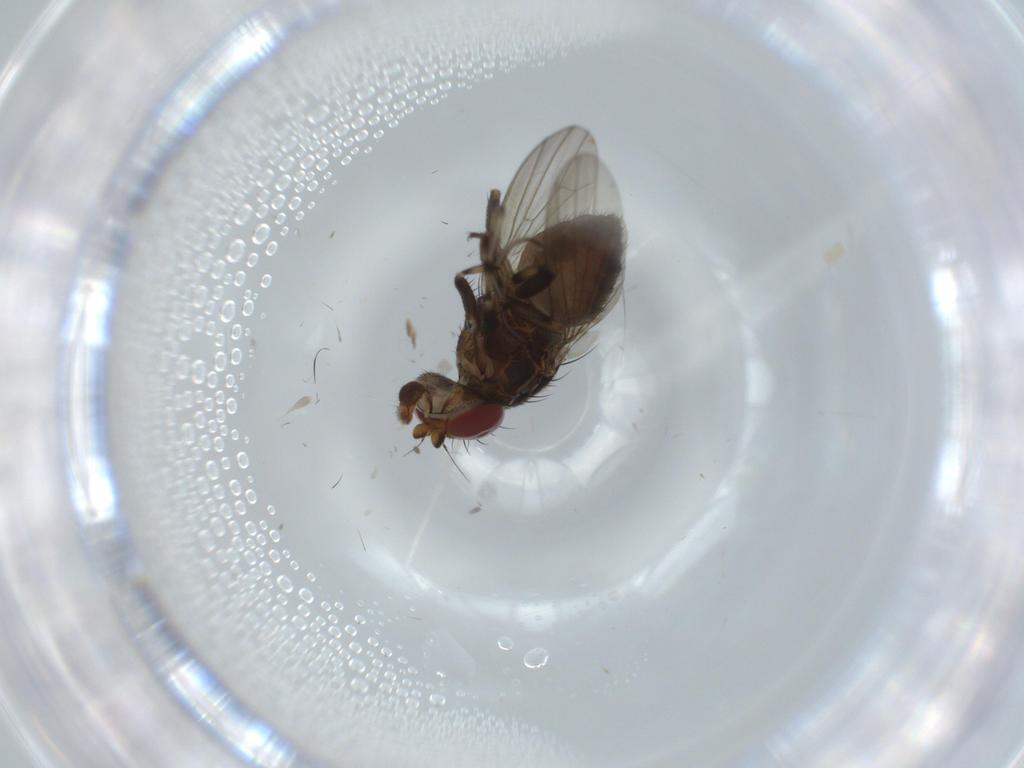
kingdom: Animalia
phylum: Arthropoda
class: Insecta
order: Diptera
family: Heleomyzidae
